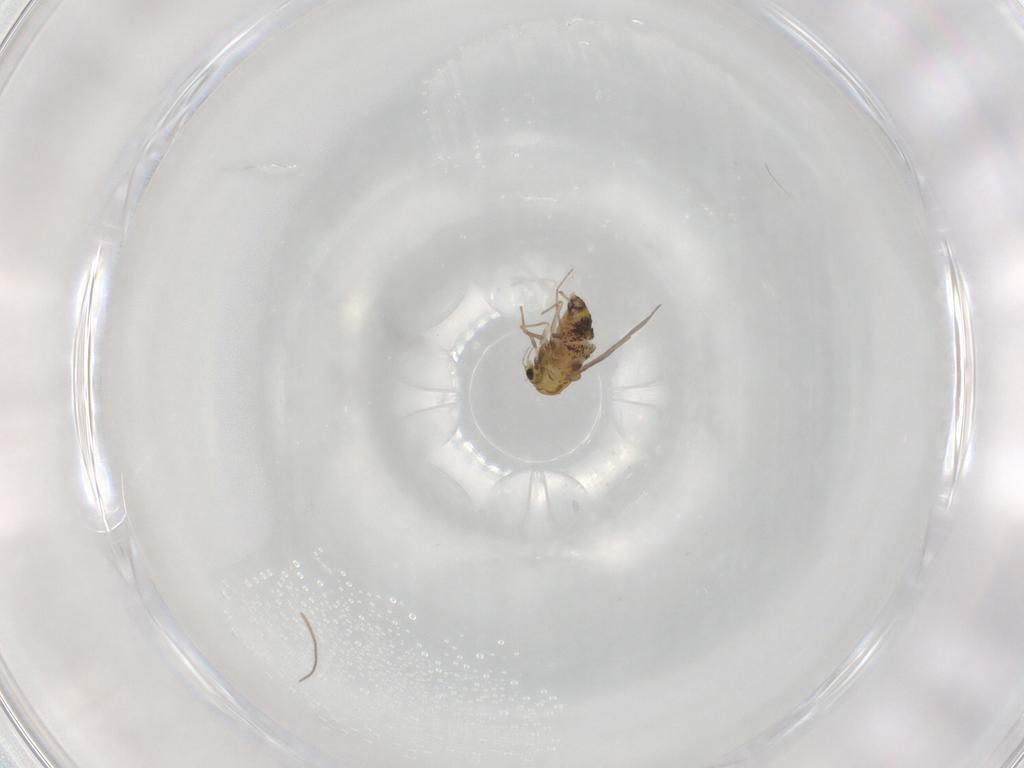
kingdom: Animalia
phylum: Arthropoda
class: Insecta
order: Diptera
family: Chironomidae
